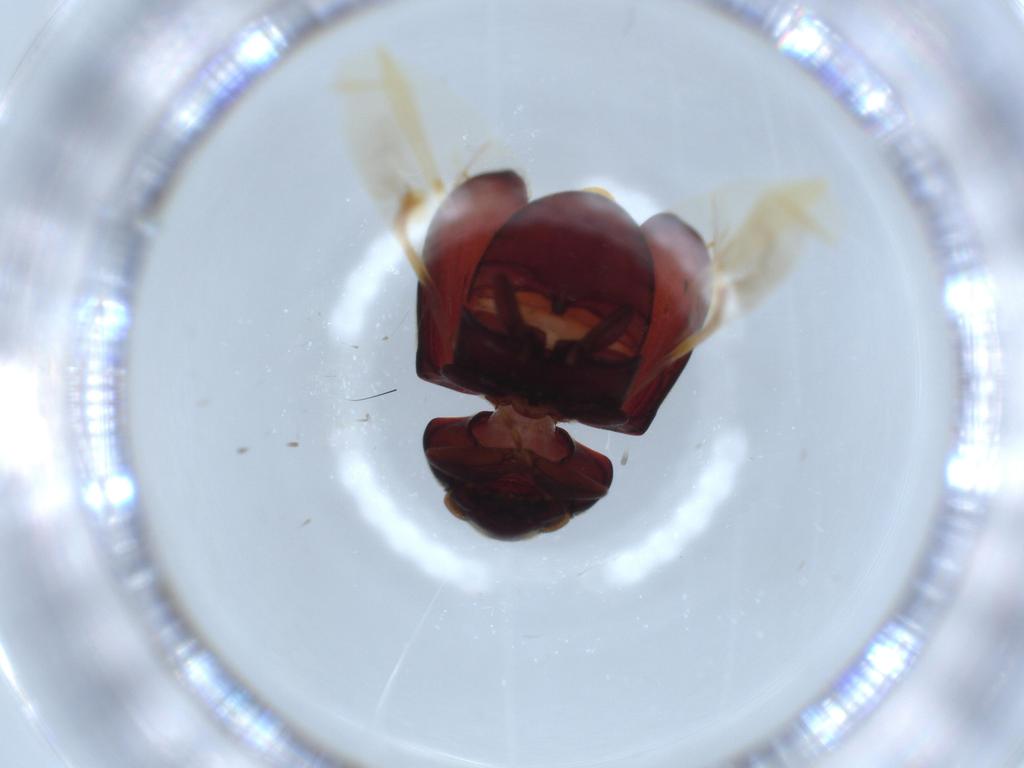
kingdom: Animalia
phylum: Arthropoda
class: Insecta
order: Coleoptera
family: Ptinidae
